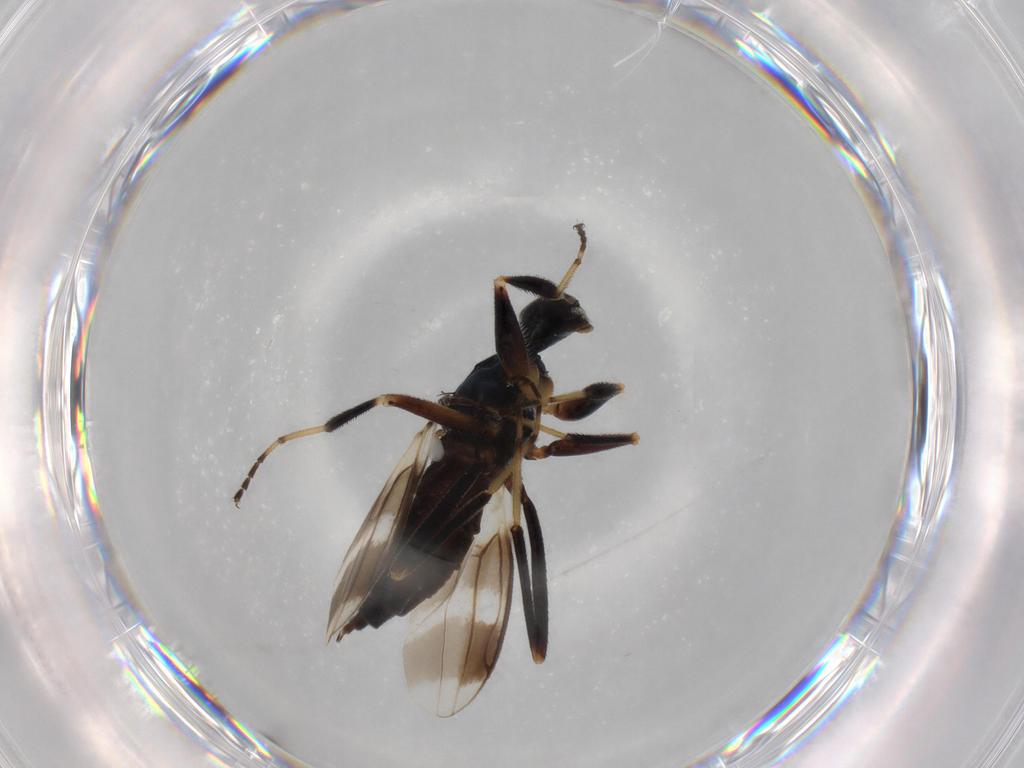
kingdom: Animalia
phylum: Arthropoda
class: Insecta
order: Diptera
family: Hybotidae
